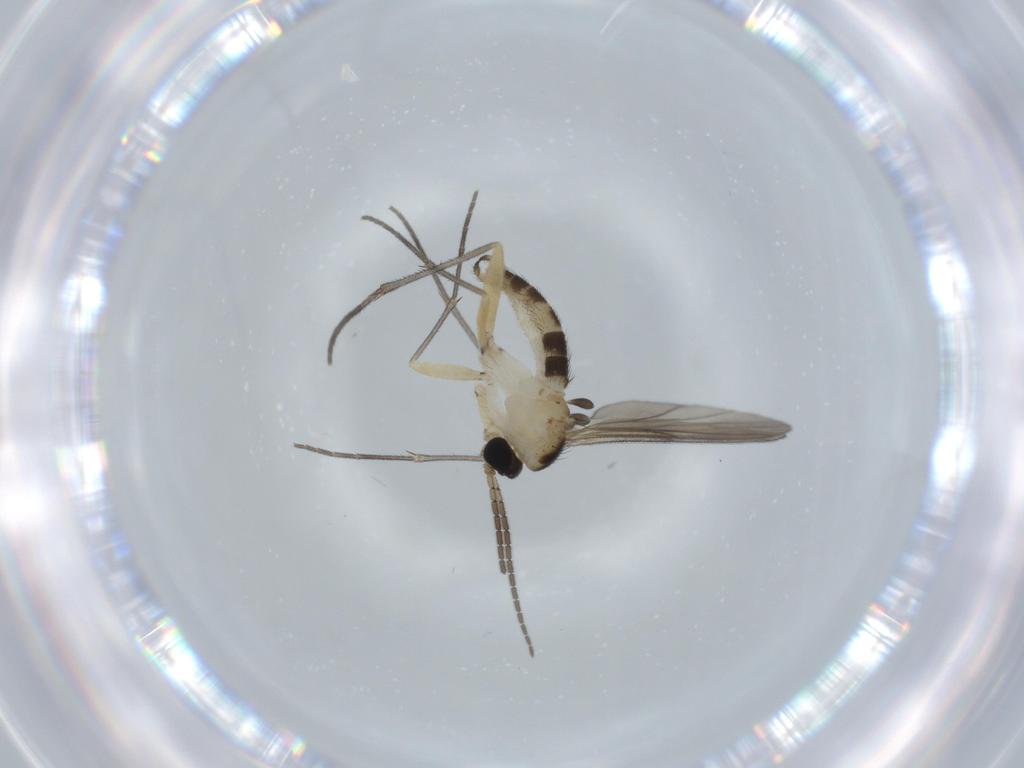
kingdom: Animalia
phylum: Arthropoda
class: Insecta
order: Diptera
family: Sciaridae
